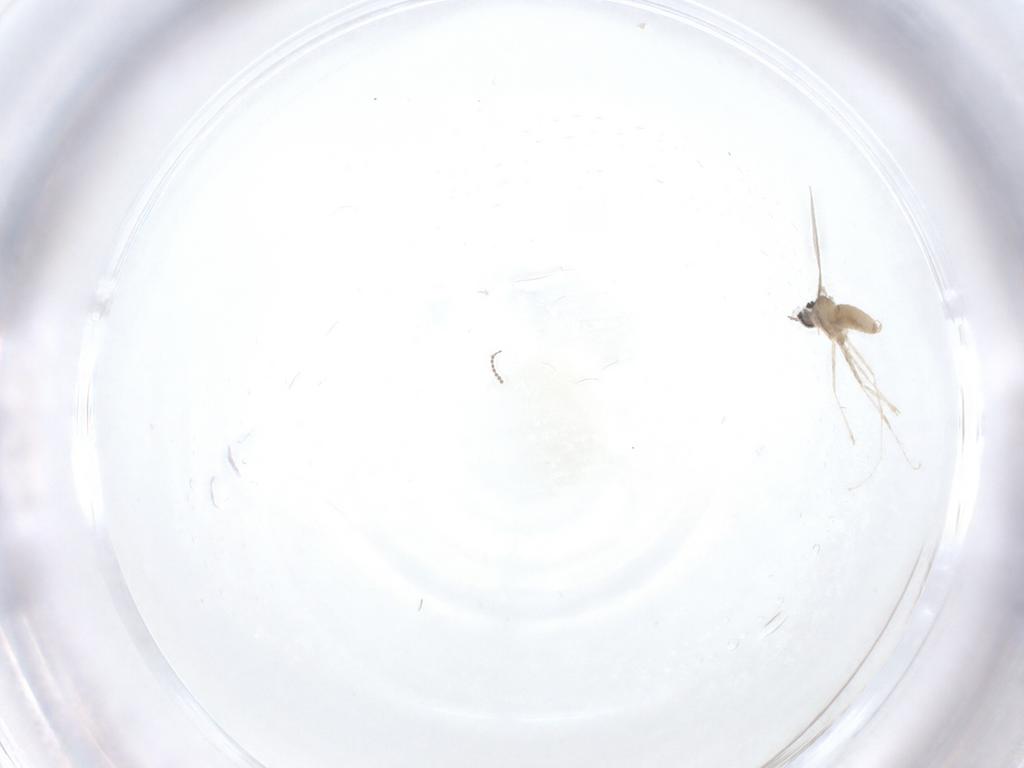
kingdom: Animalia
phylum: Arthropoda
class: Insecta
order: Diptera
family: Cecidomyiidae
